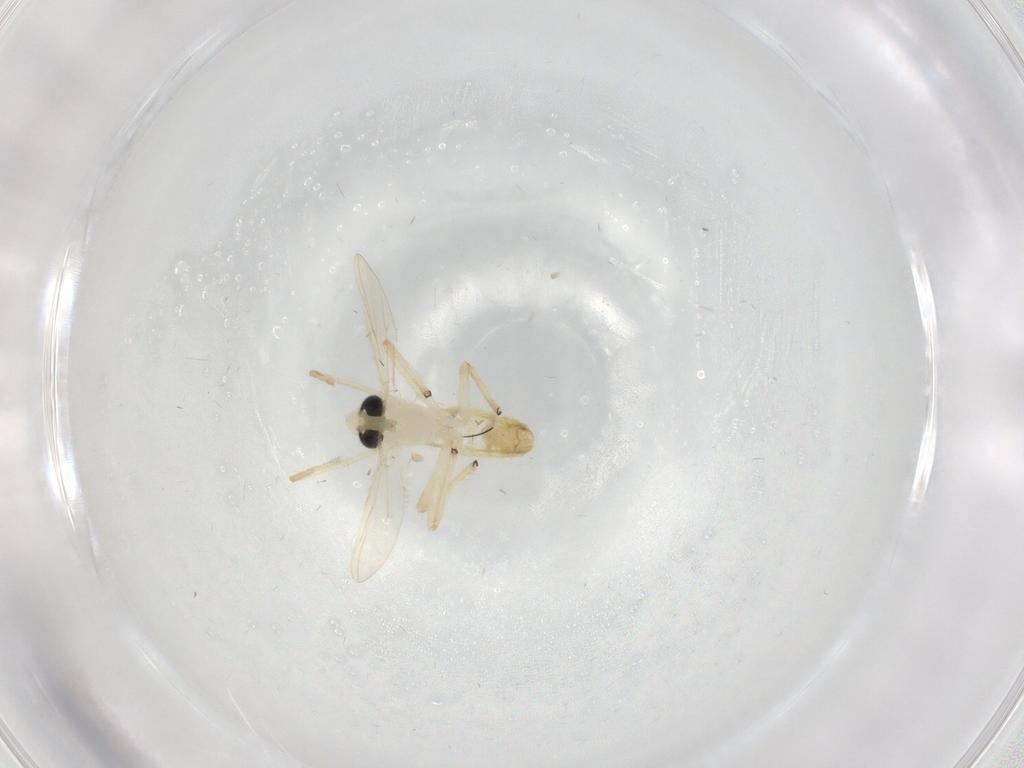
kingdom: Animalia
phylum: Arthropoda
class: Insecta
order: Diptera
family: Chironomidae
